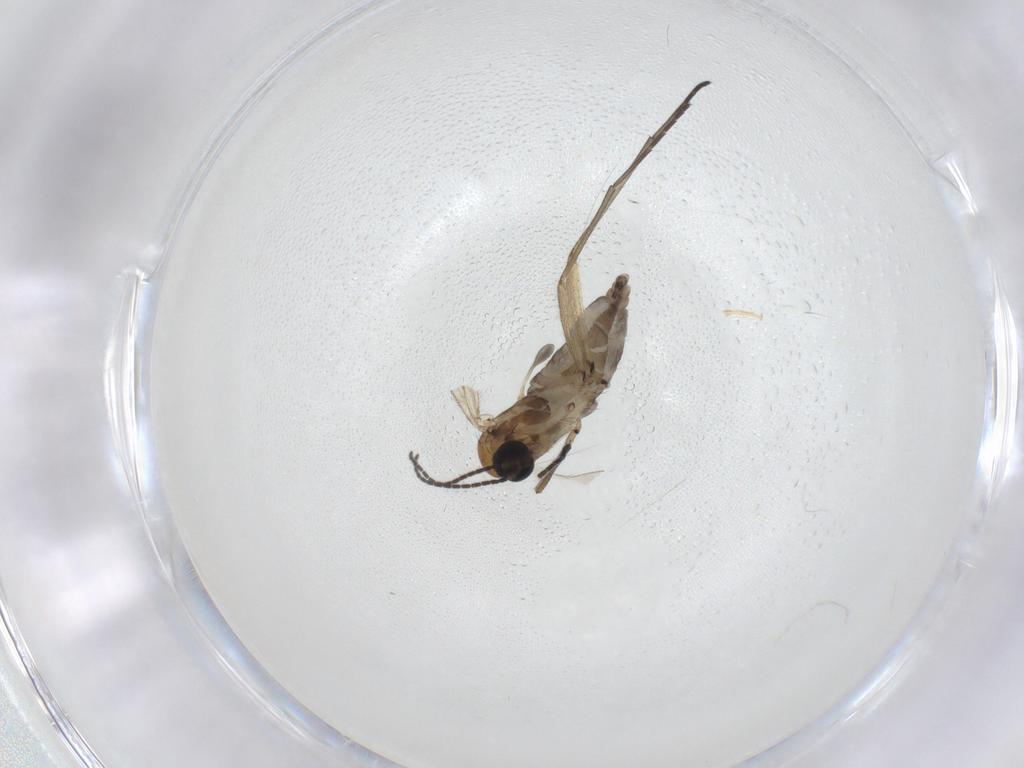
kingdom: Animalia
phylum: Arthropoda
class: Insecta
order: Diptera
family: Sciaridae
